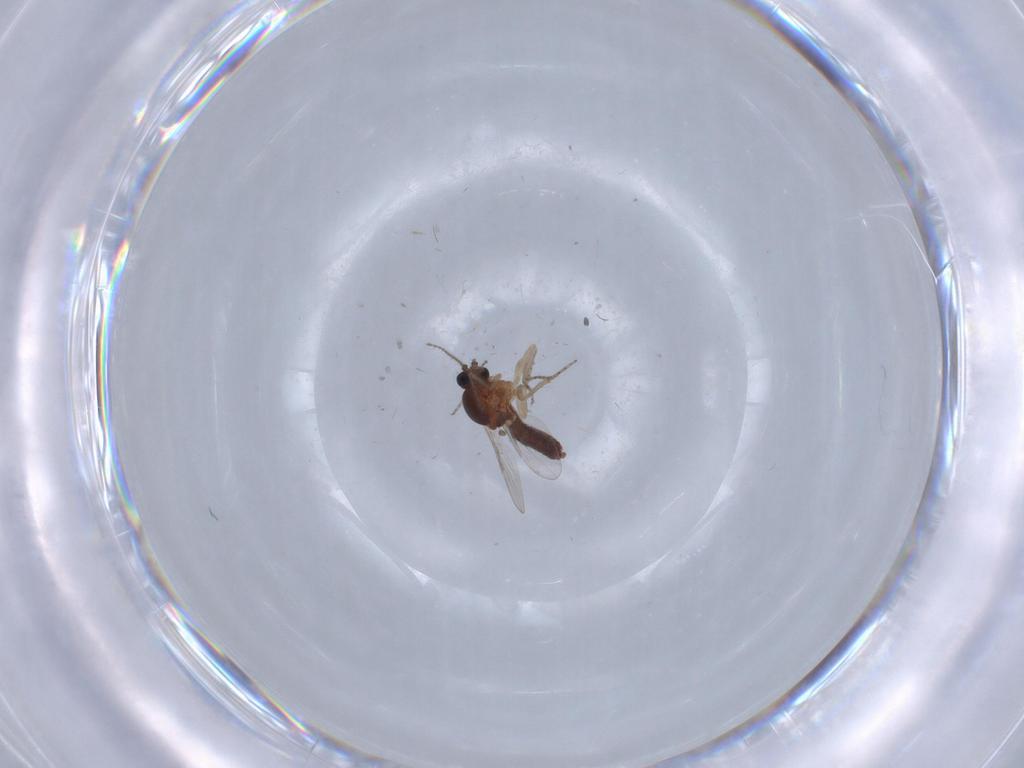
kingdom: Animalia
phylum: Arthropoda
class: Insecta
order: Diptera
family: Ceratopogonidae
